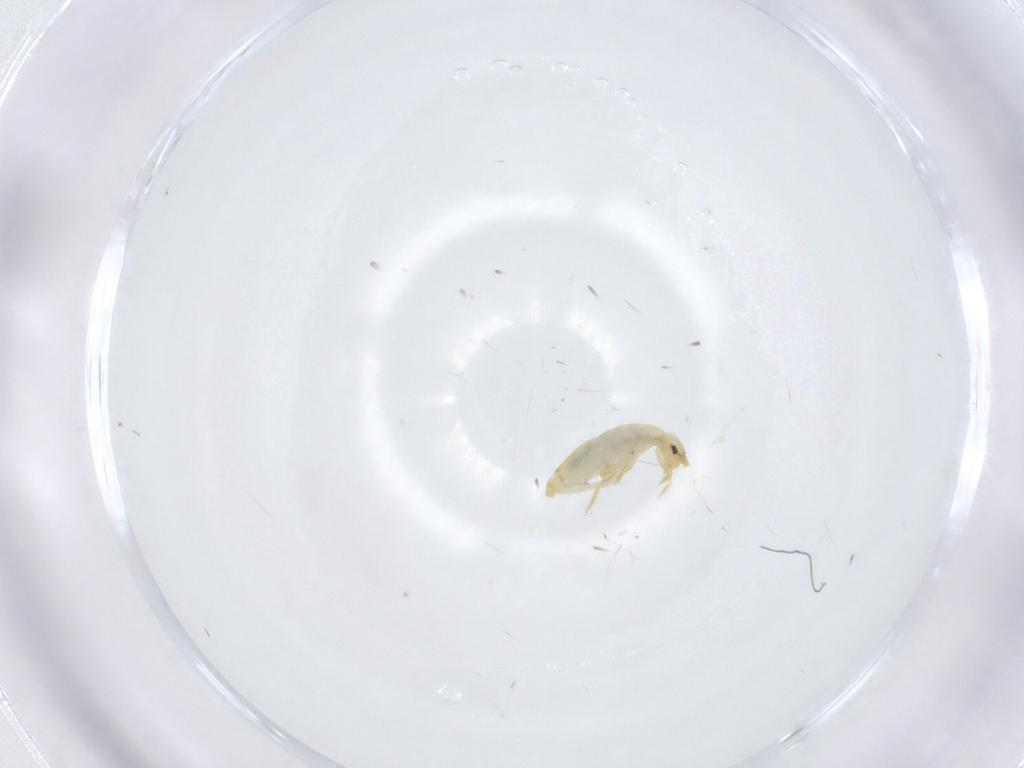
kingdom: Animalia
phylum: Arthropoda
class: Collembola
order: Entomobryomorpha
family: Entomobryidae
